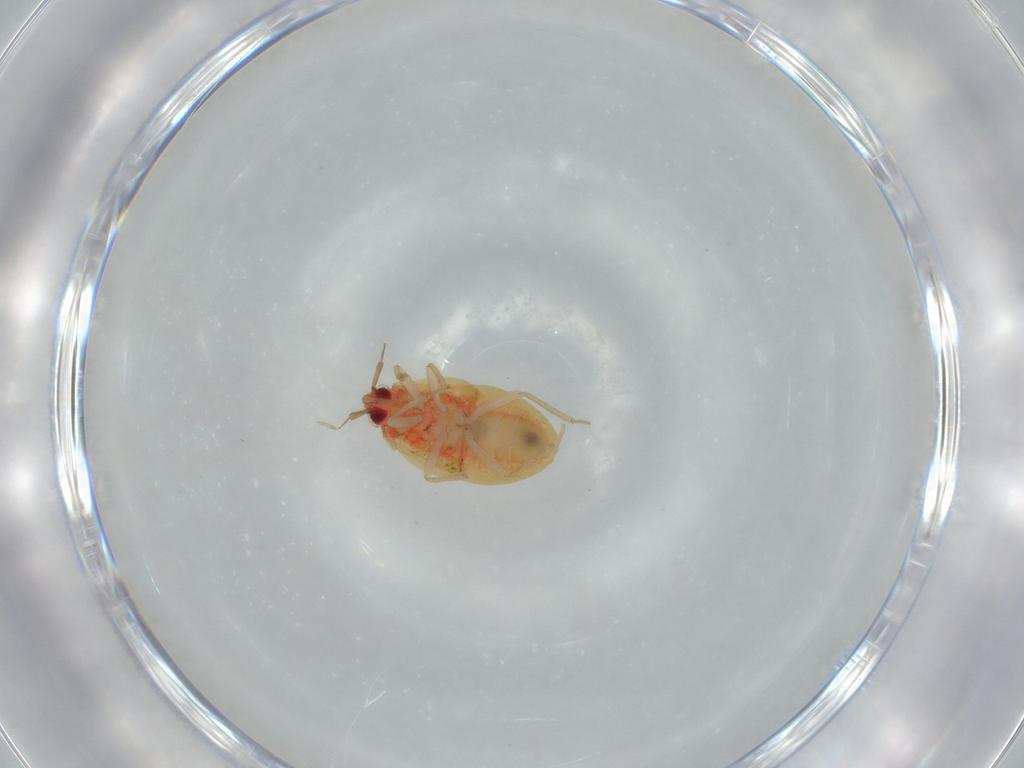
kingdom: Animalia
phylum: Arthropoda
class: Insecta
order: Hemiptera
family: Anthocoridae
